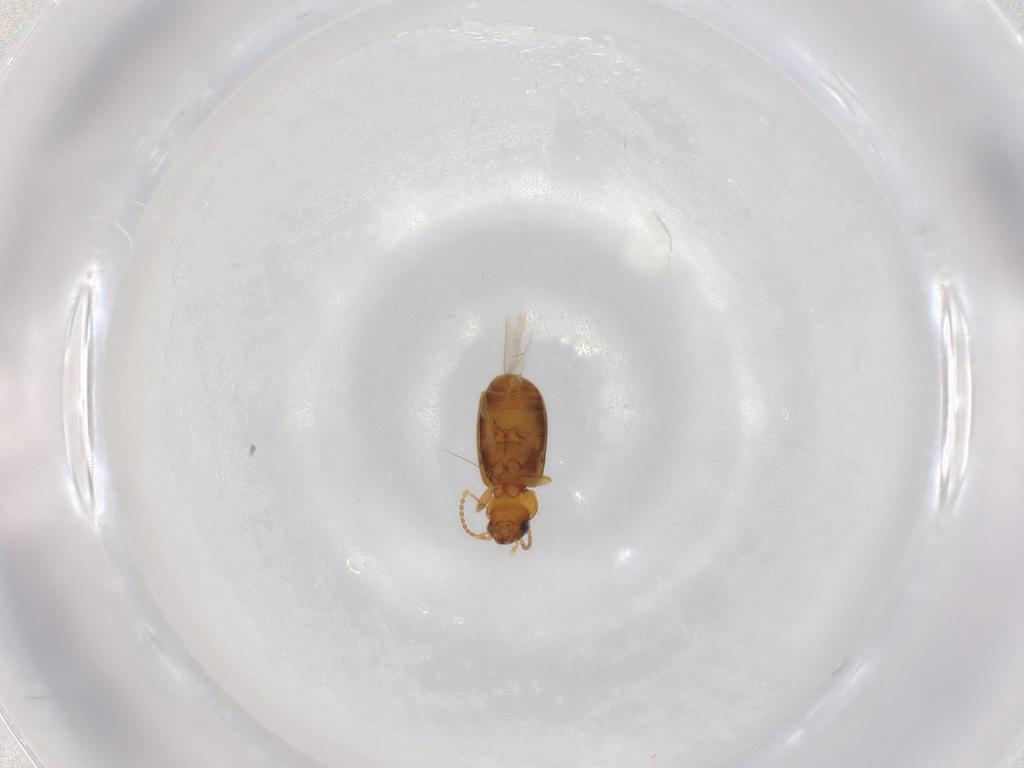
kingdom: Animalia
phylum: Arthropoda
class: Insecta
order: Coleoptera
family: Carabidae
